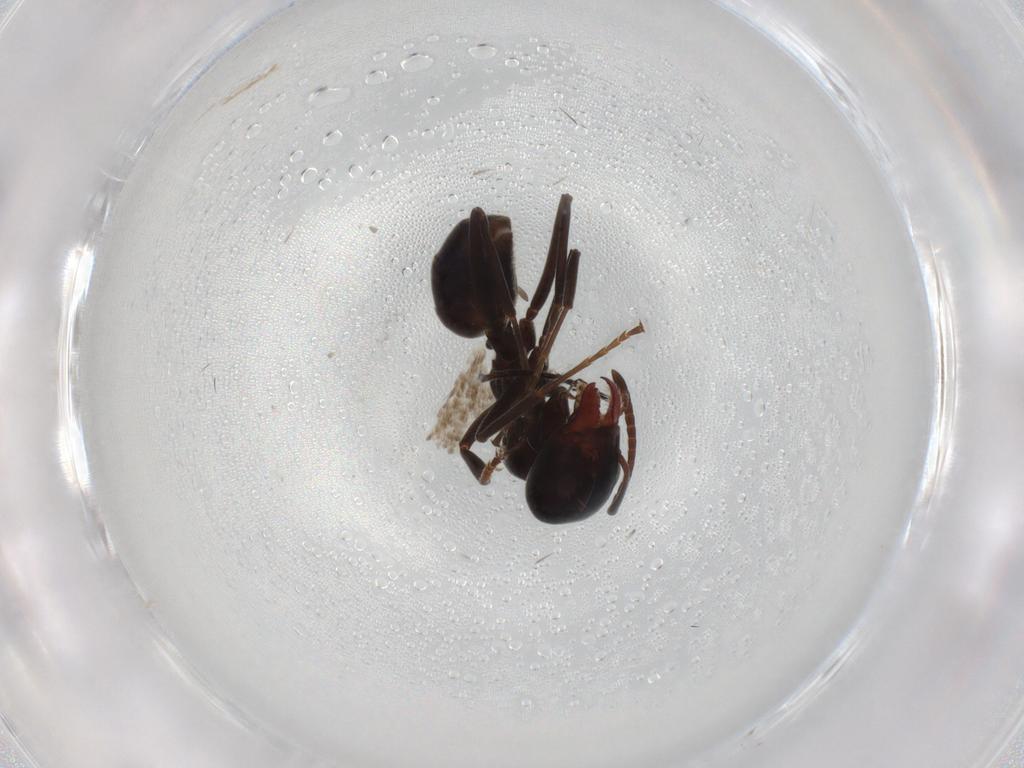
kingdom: Animalia
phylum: Arthropoda
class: Insecta
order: Hymenoptera
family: Formicidae
